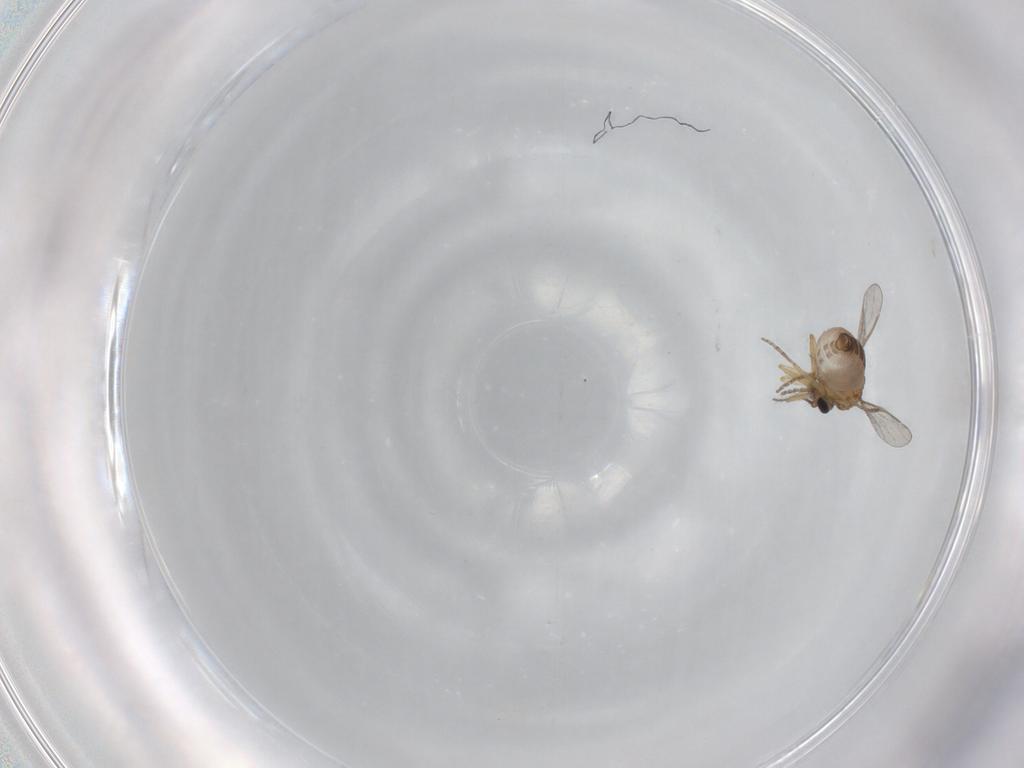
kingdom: Animalia
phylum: Arthropoda
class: Insecta
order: Diptera
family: Ceratopogonidae
